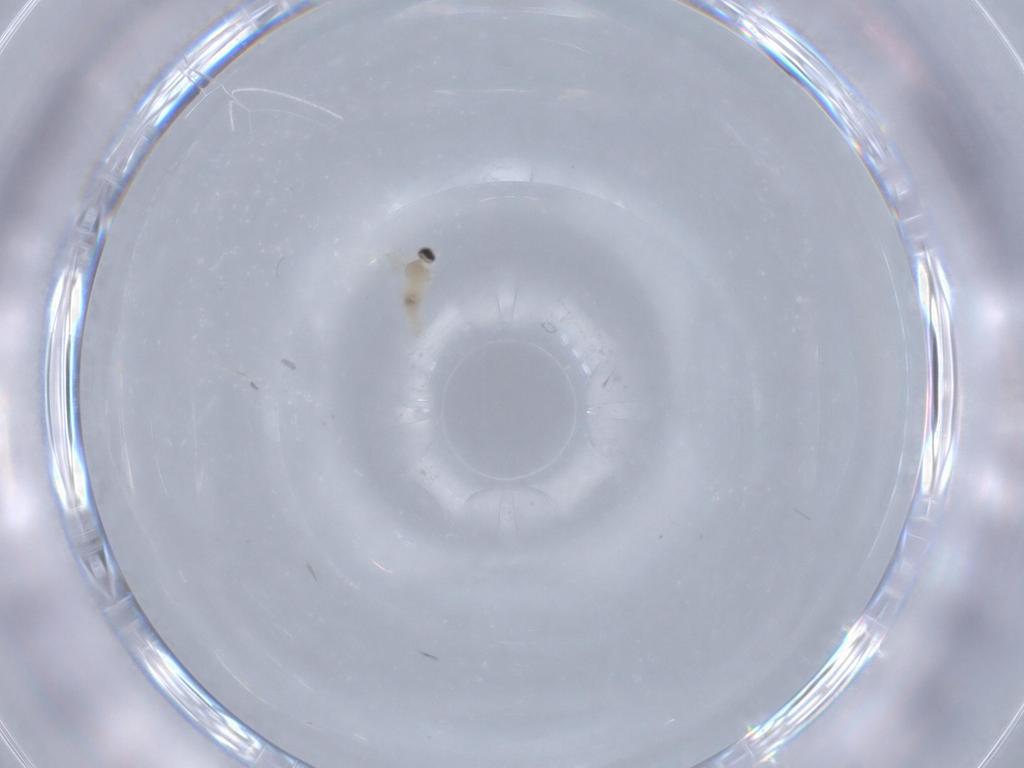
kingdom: Animalia
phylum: Arthropoda
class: Insecta
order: Diptera
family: Cecidomyiidae
